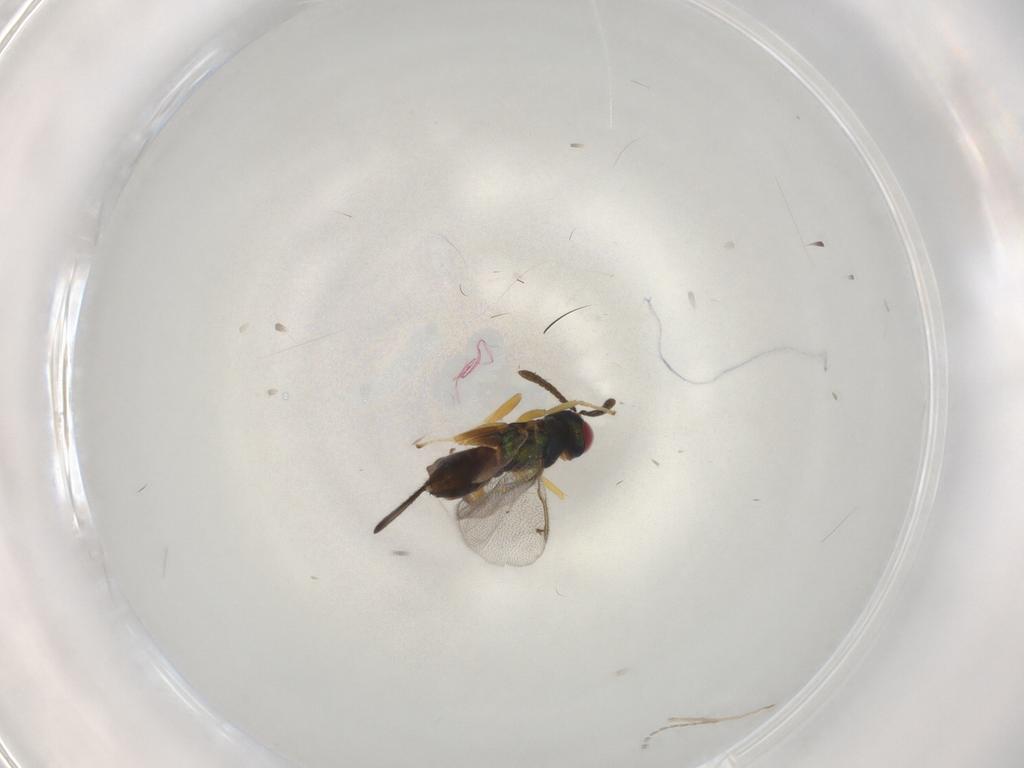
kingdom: Animalia
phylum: Arthropoda
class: Insecta
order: Hymenoptera
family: Torymidae
